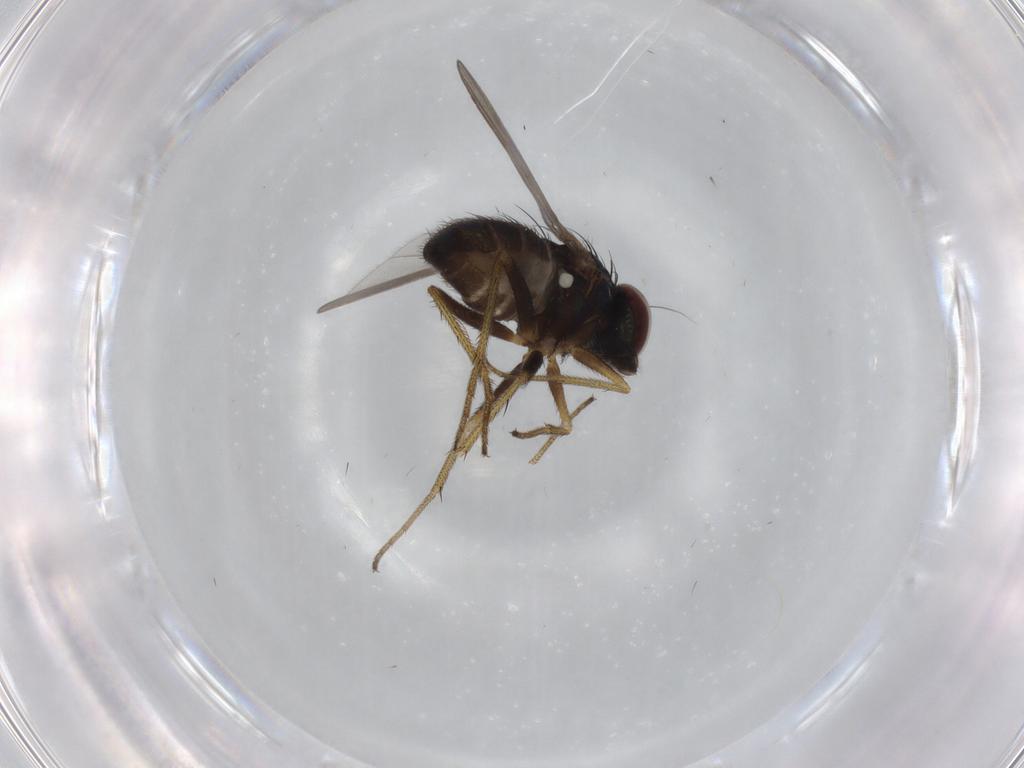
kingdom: Animalia
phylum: Arthropoda
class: Insecta
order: Diptera
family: Dolichopodidae
